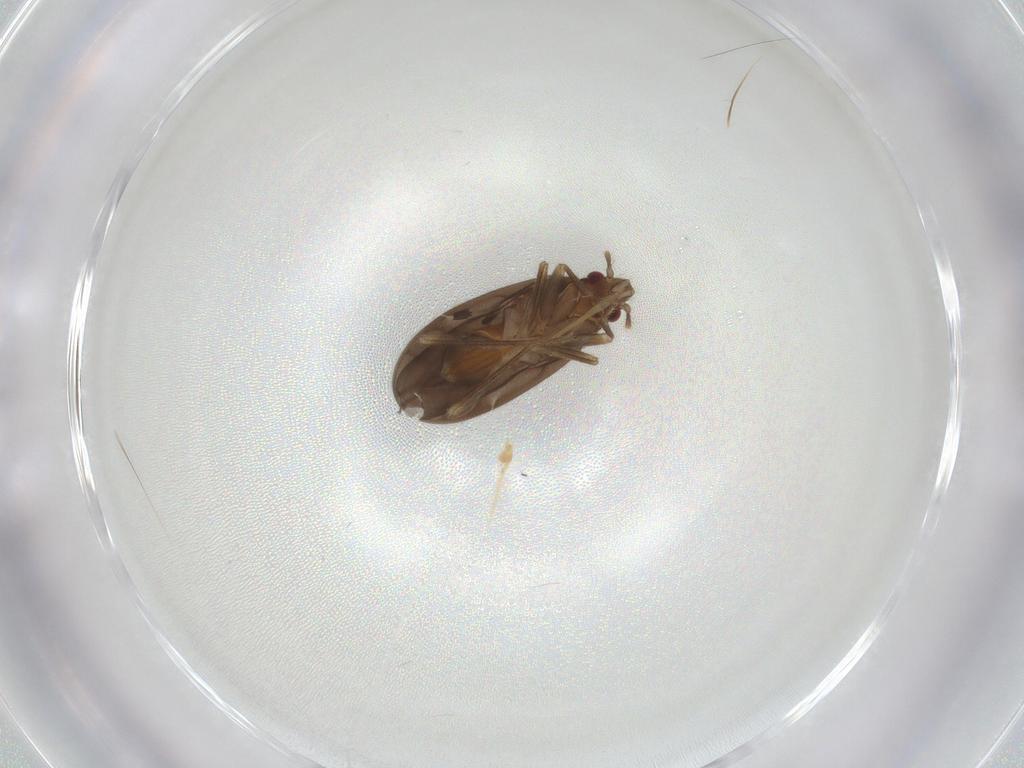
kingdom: Animalia
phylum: Arthropoda
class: Insecta
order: Hemiptera
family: Ceratocombidae
